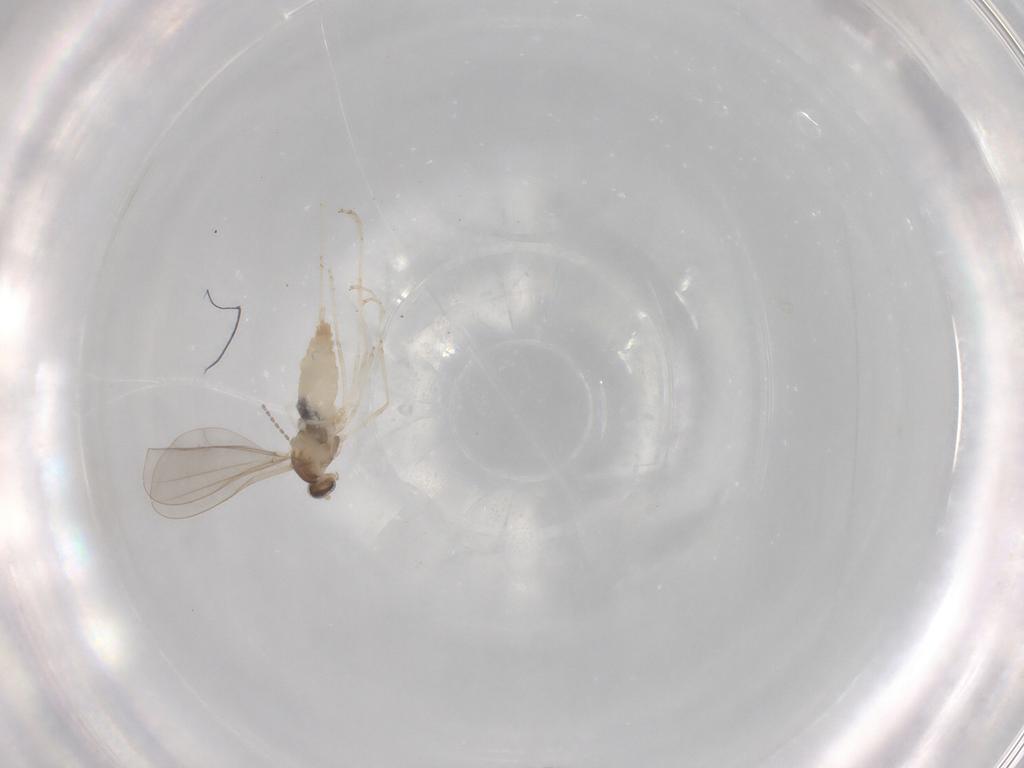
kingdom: Animalia
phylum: Arthropoda
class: Insecta
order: Diptera
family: Cecidomyiidae
